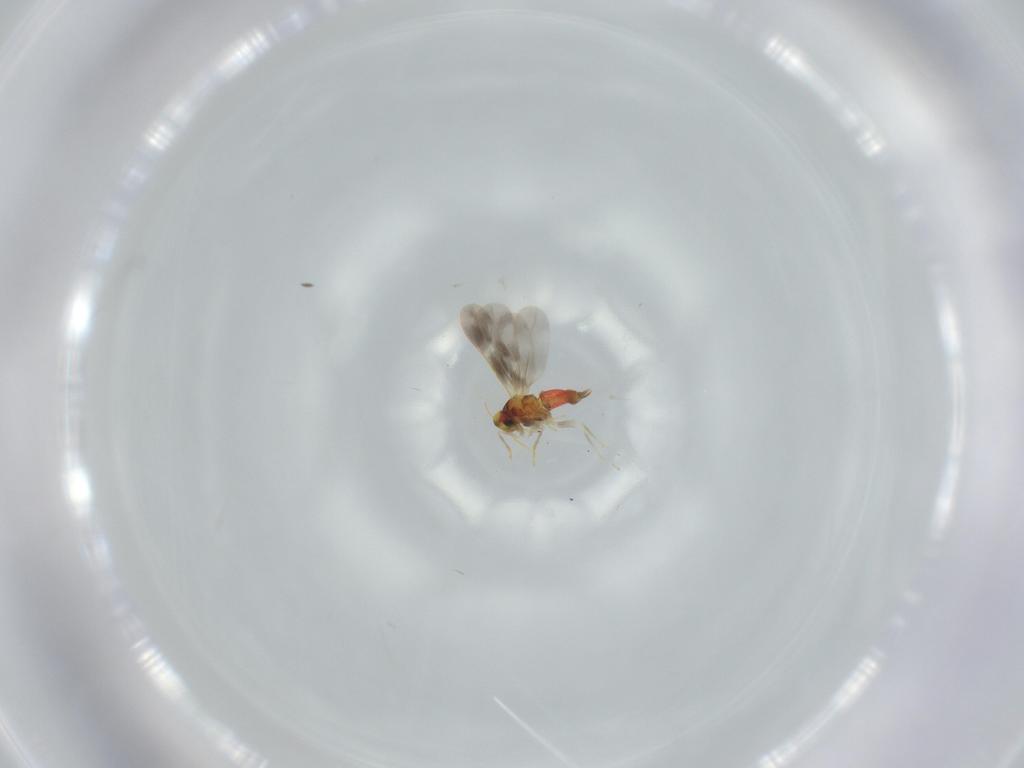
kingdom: Animalia
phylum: Arthropoda
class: Insecta
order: Hemiptera
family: Aleyrodidae
